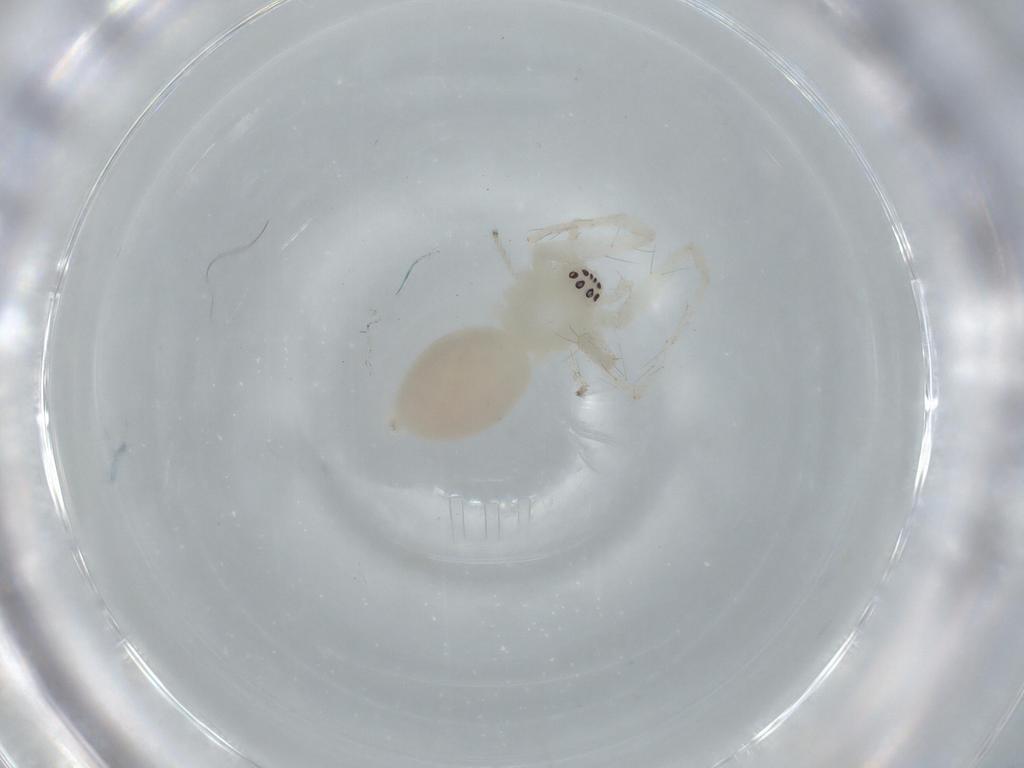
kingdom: Animalia
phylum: Arthropoda
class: Arachnida
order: Araneae
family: Anyphaenidae
